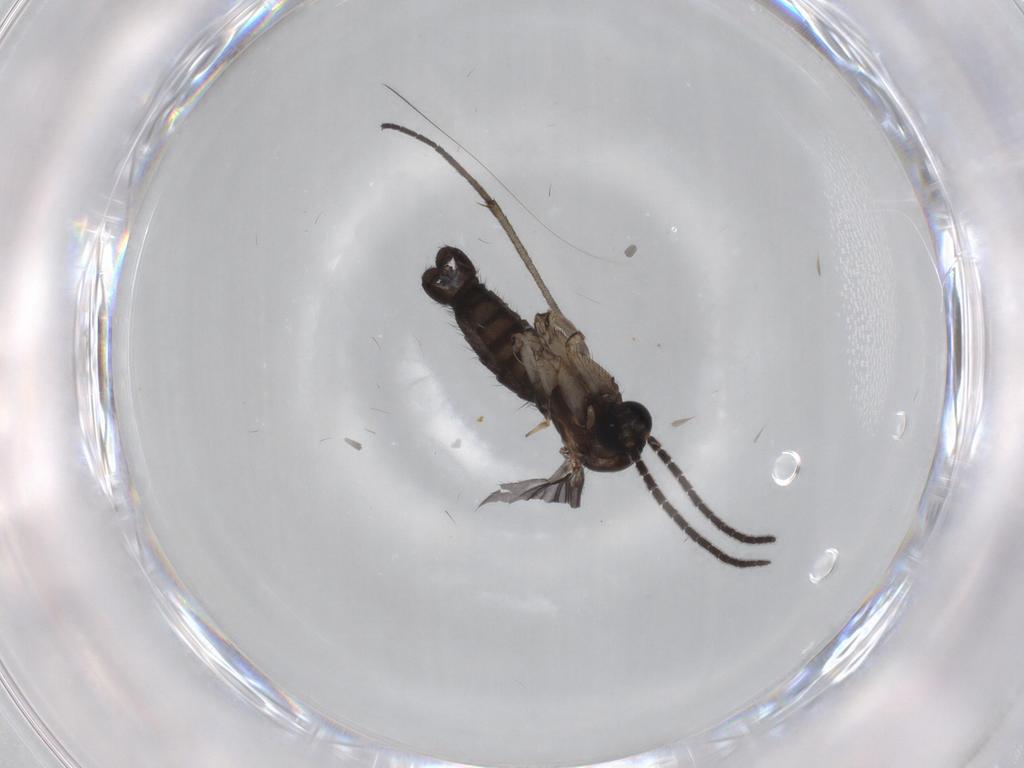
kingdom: Animalia
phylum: Arthropoda
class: Insecta
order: Diptera
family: Sciaridae
